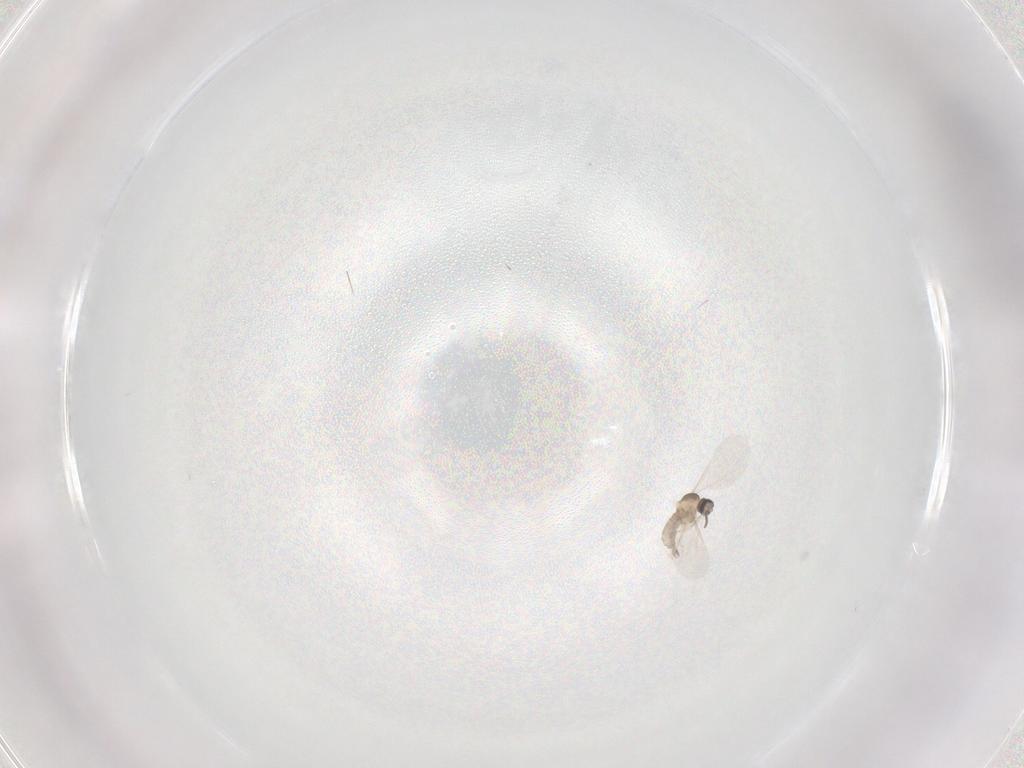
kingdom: Animalia
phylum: Arthropoda
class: Insecta
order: Diptera
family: Cecidomyiidae
